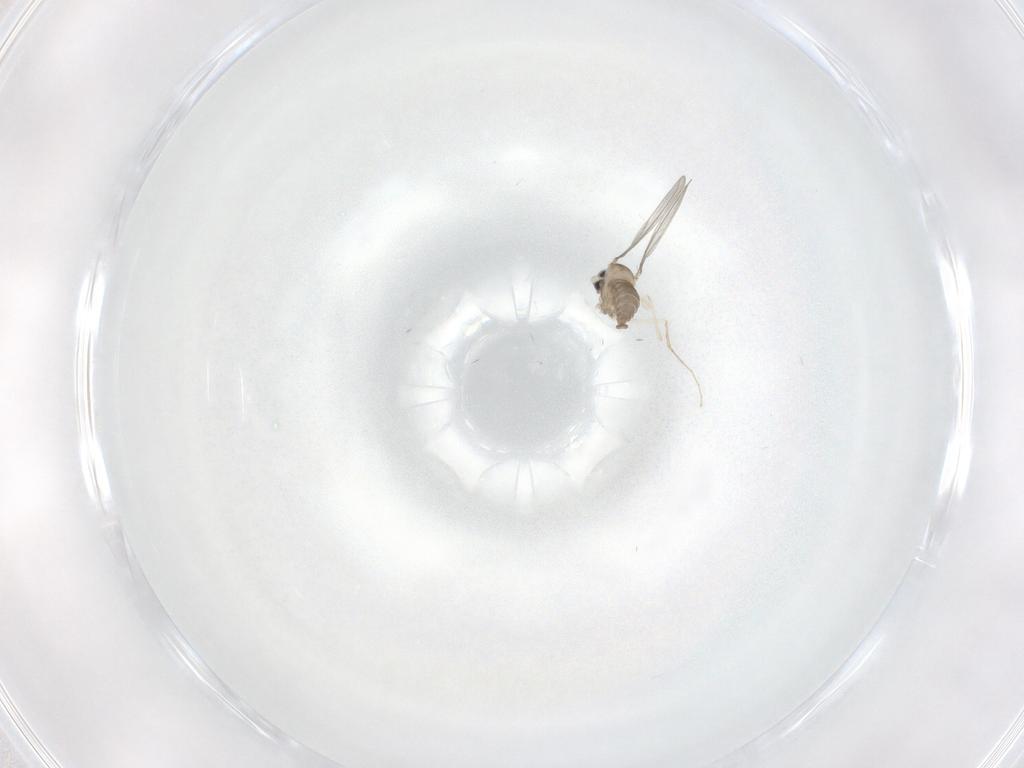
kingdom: Animalia
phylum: Arthropoda
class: Insecta
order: Diptera
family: Cecidomyiidae
